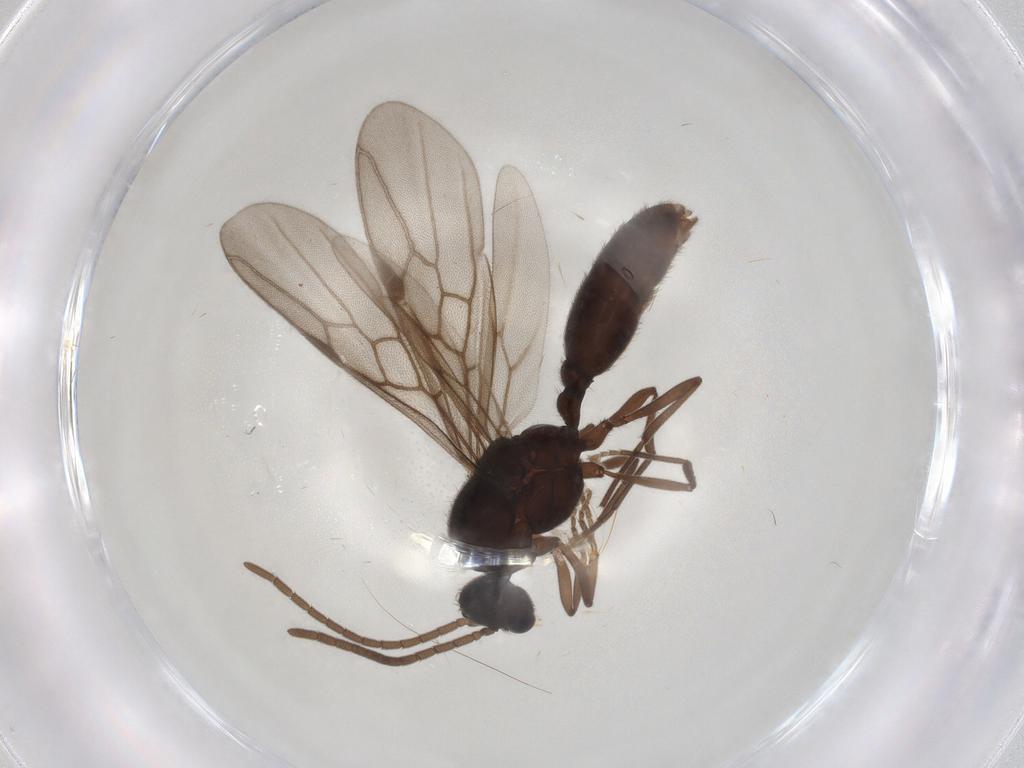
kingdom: Animalia
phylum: Arthropoda
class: Insecta
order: Hymenoptera
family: Formicidae
